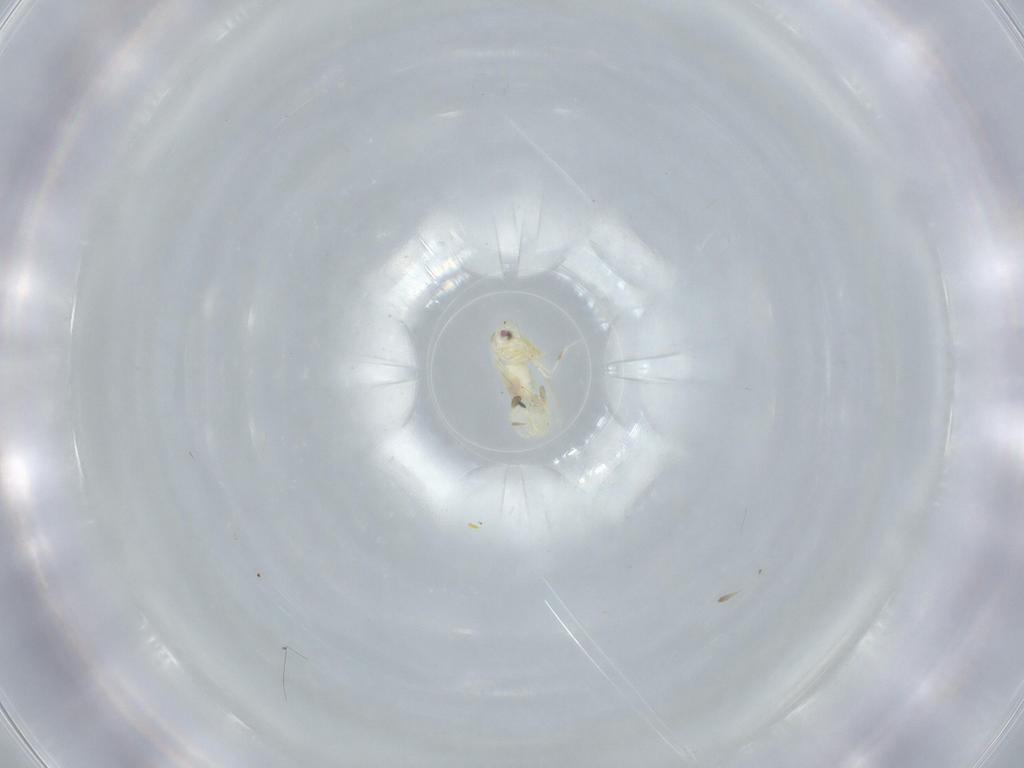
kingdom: Animalia
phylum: Arthropoda
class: Insecta
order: Hemiptera
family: Aleyrodidae
